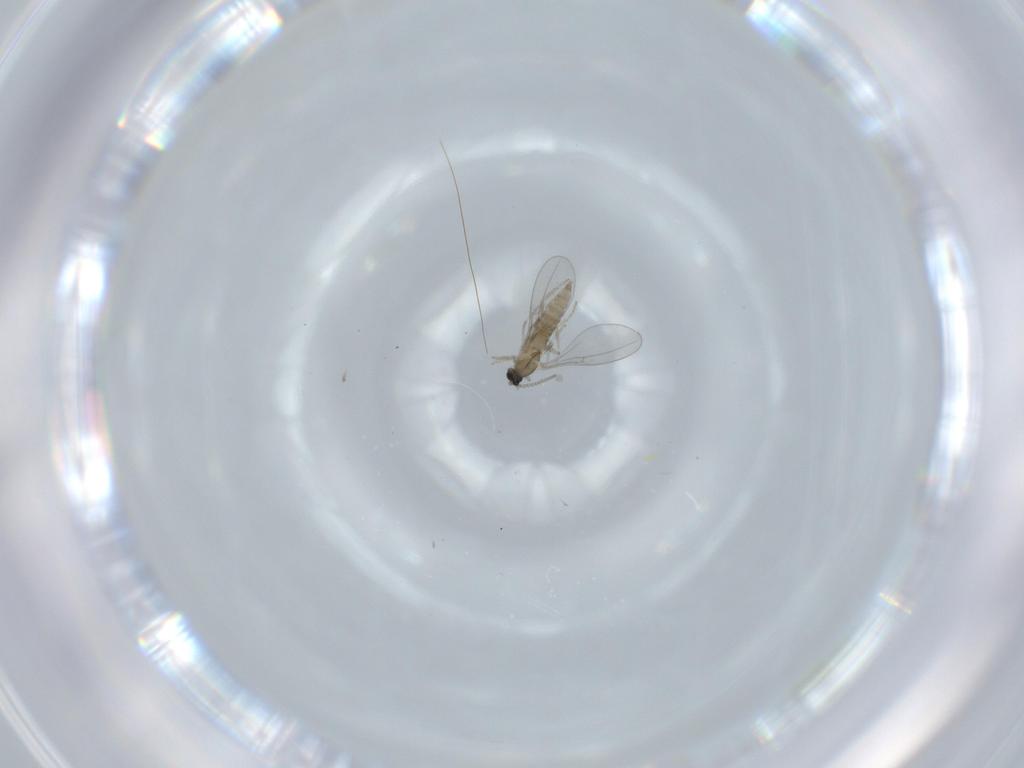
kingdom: Animalia
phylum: Arthropoda
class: Insecta
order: Diptera
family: Cecidomyiidae
